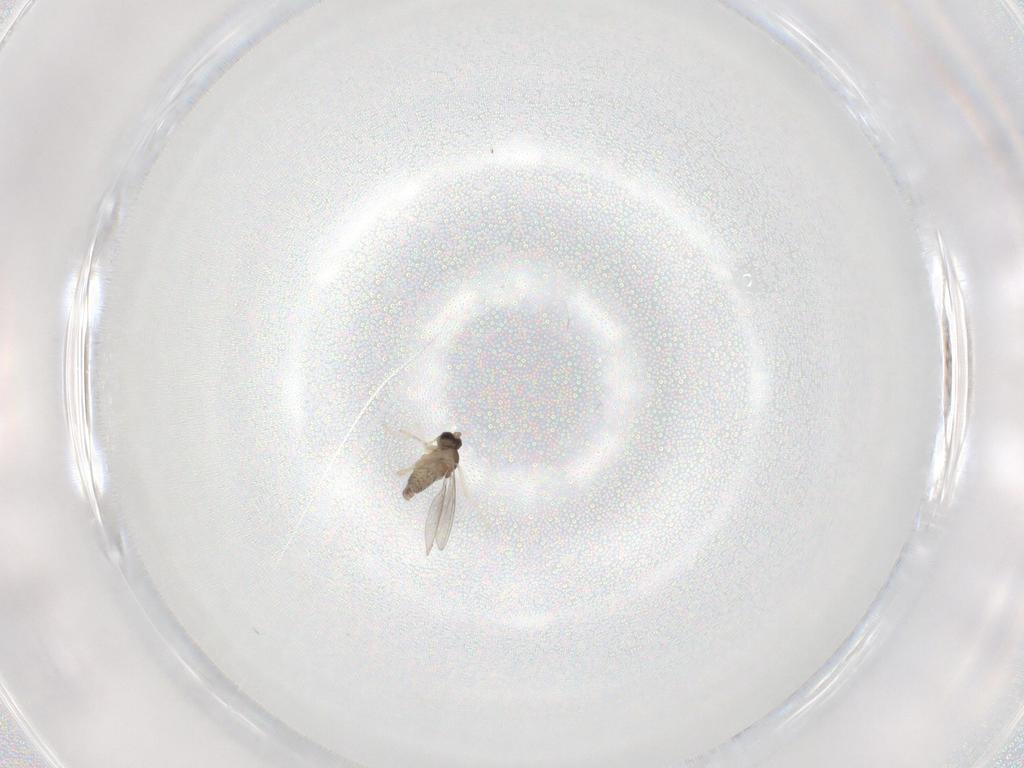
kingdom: Animalia
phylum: Arthropoda
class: Insecta
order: Diptera
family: Cecidomyiidae
